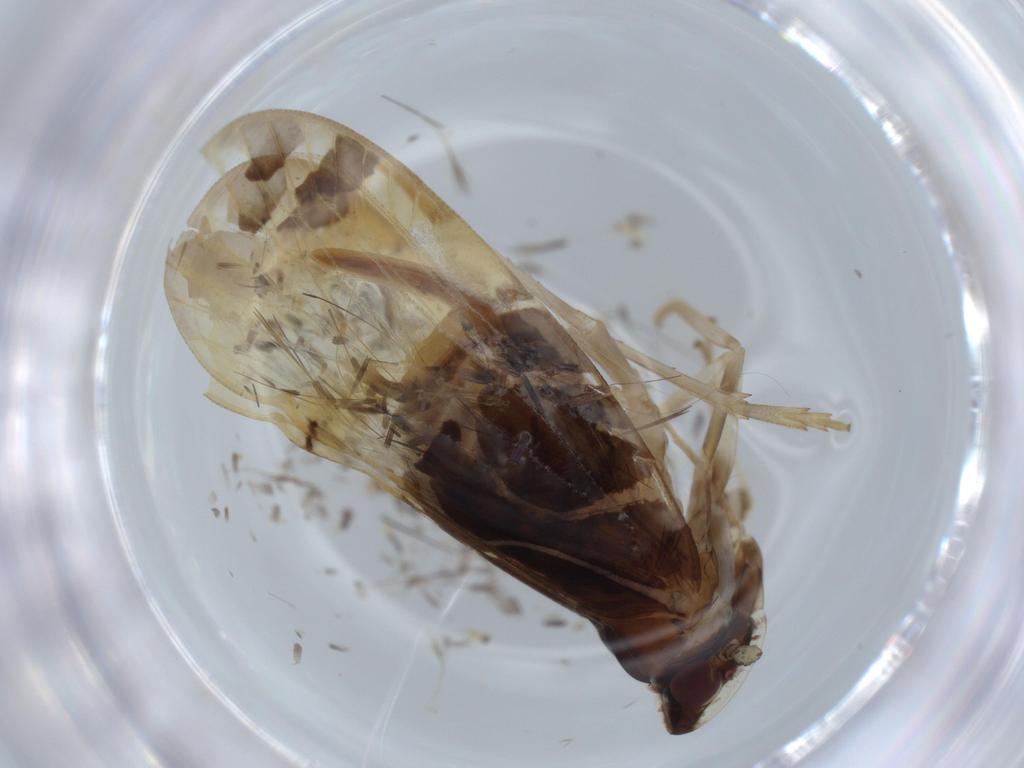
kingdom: Animalia
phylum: Arthropoda
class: Insecta
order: Hemiptera
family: Cixiidae
